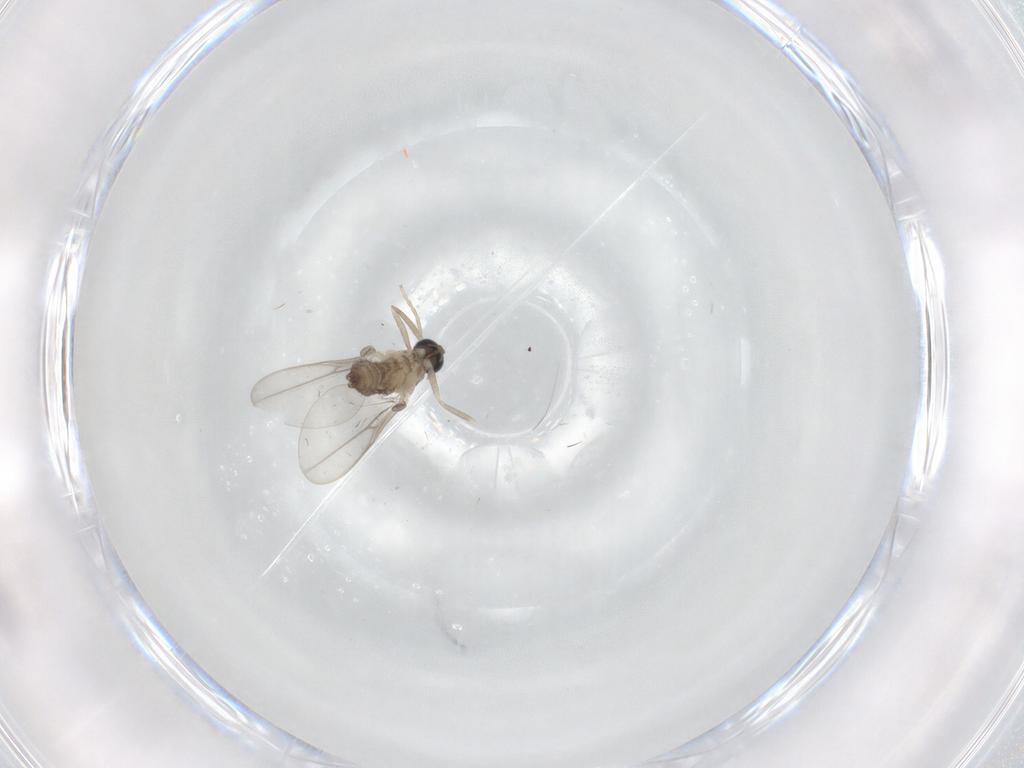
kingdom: Animalia
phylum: Arthropoda
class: Insecta
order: Diptera
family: Cecidomyiidae
